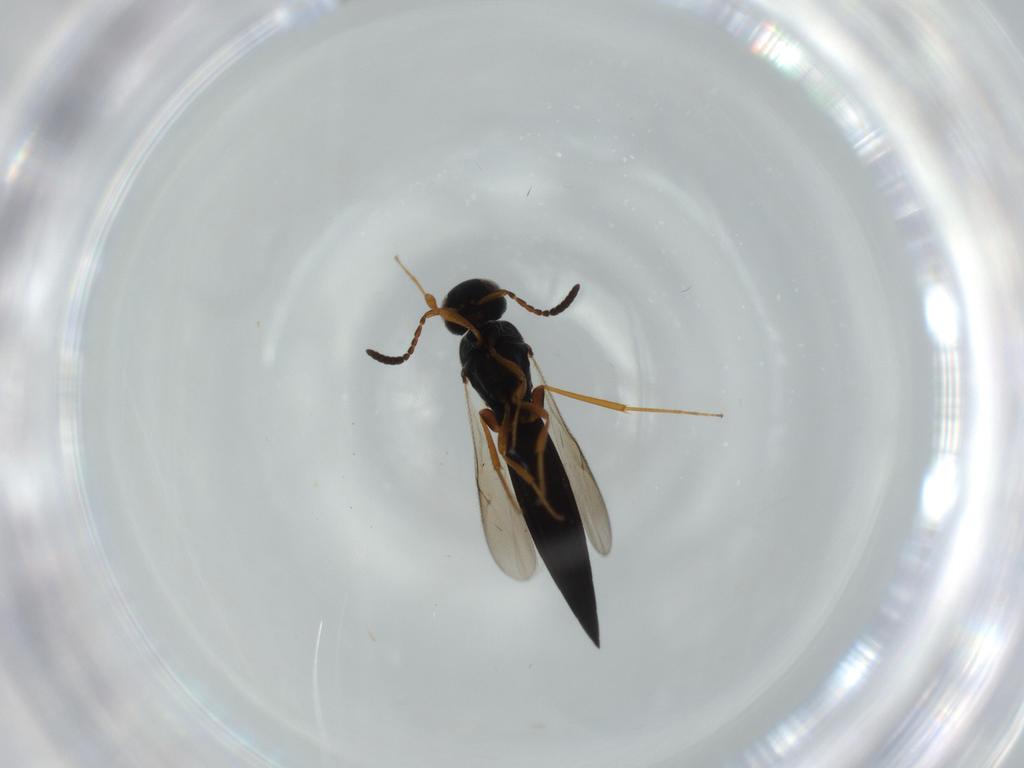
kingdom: Animalia
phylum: Arthropoda
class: Insecta
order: Hymenoptera
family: Scelionidae
